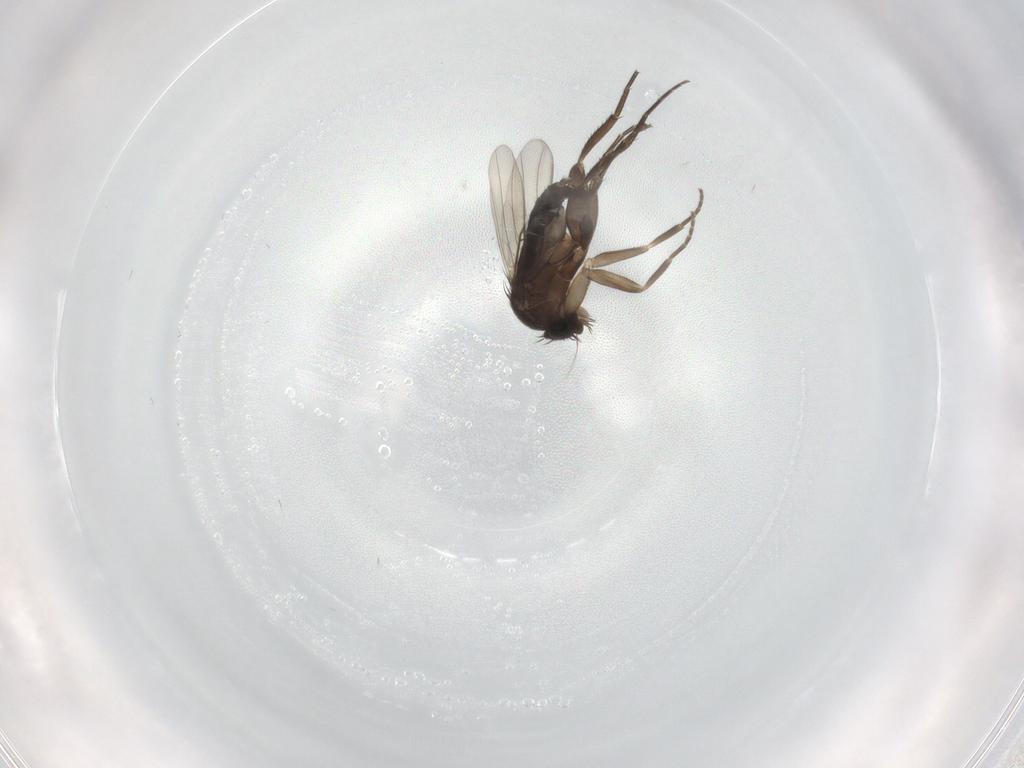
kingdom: Animalia
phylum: Arthropoda
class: Insecta
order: Diptera
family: Phoridae
